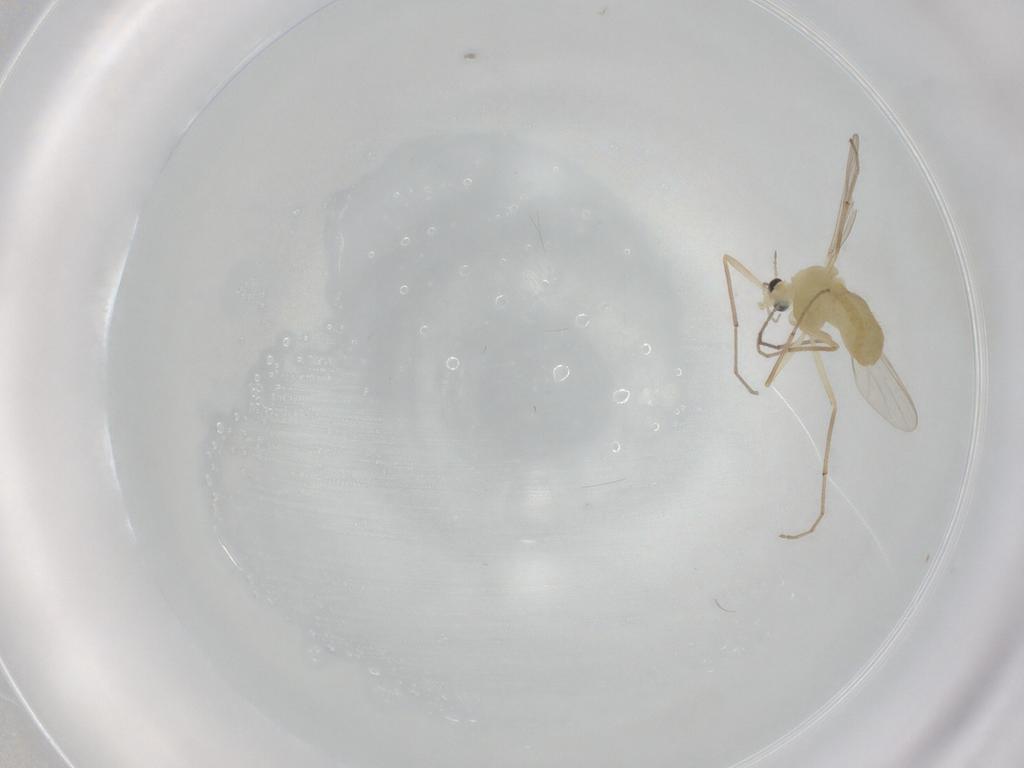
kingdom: Animalia
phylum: Arthropoda
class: Insecta
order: Diptera
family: Chironomidae
